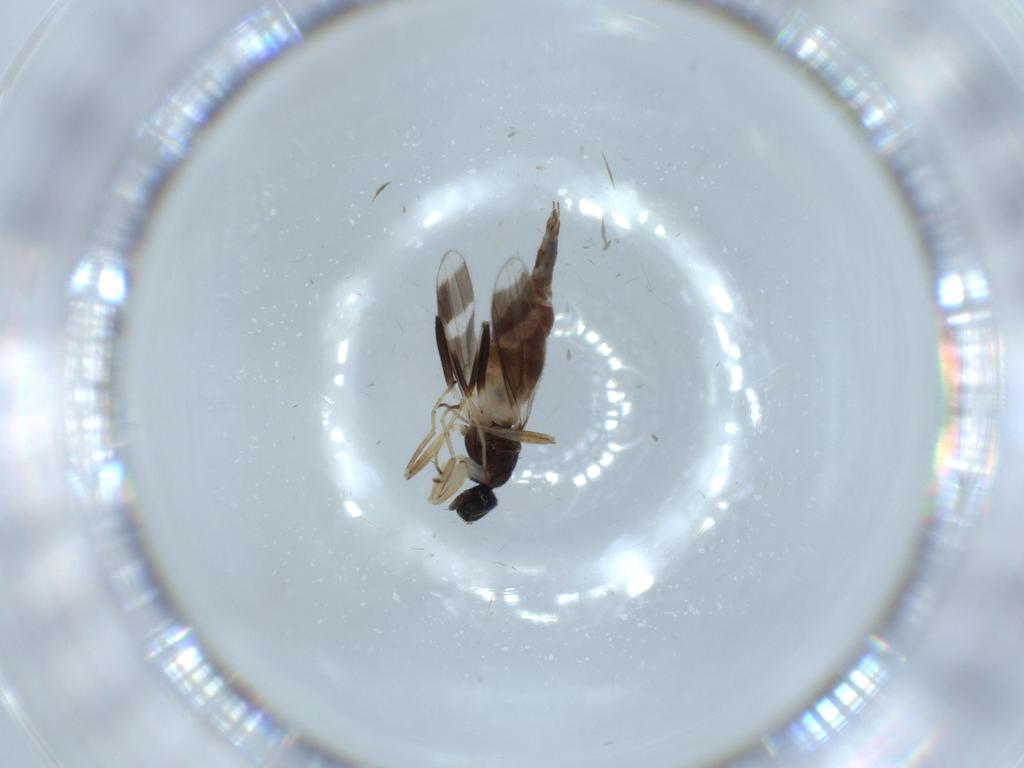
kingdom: Animalia
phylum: Arthropoda
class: Insecta
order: Diptera
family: Hybotidae
